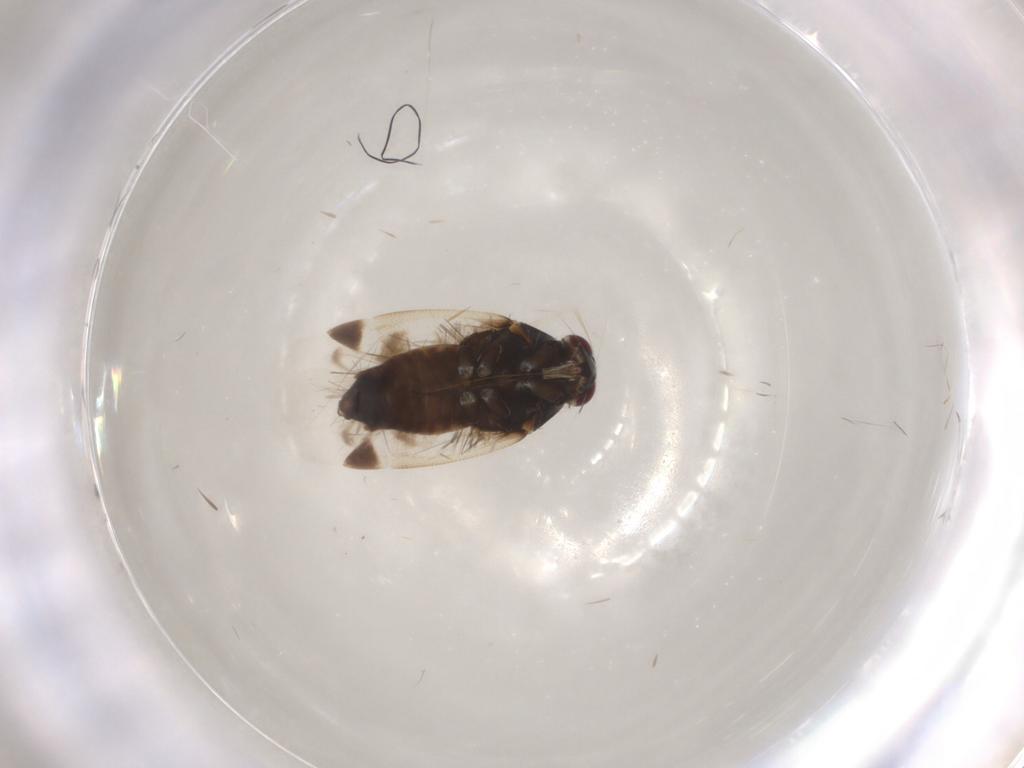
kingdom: Animalia
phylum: Arthropoda
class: Insecta
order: Hemiptera
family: Miridae
